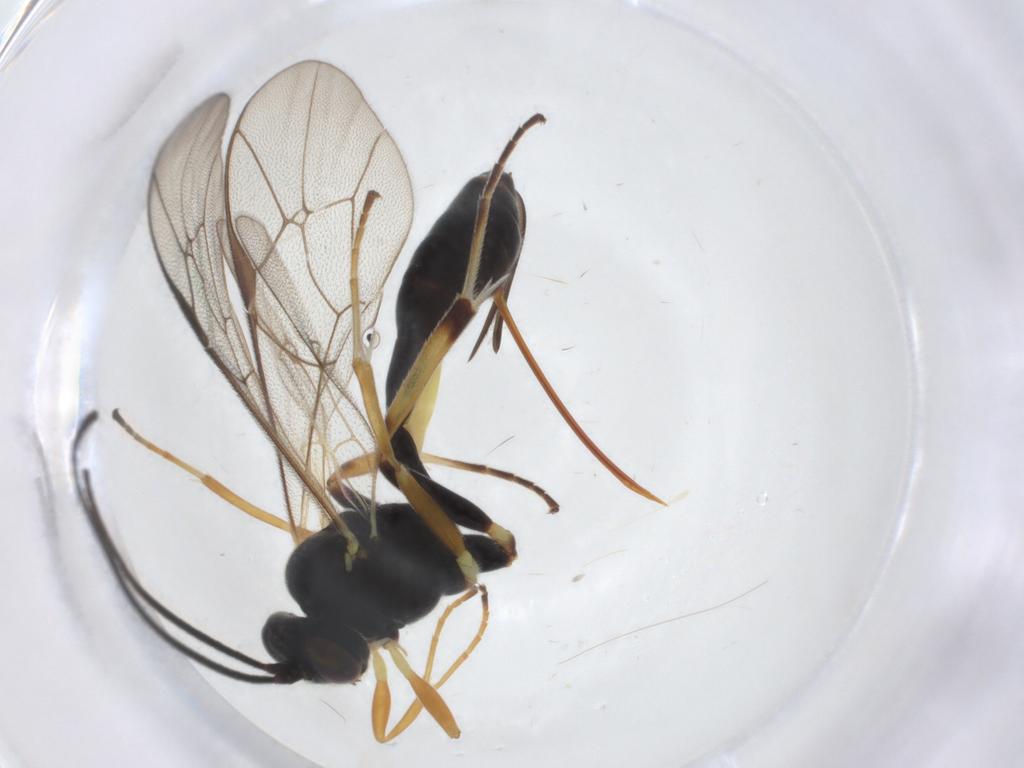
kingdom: Animalia
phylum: Arthropoda
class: Insecta
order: Hymenoptera
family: Ichneumonidae
